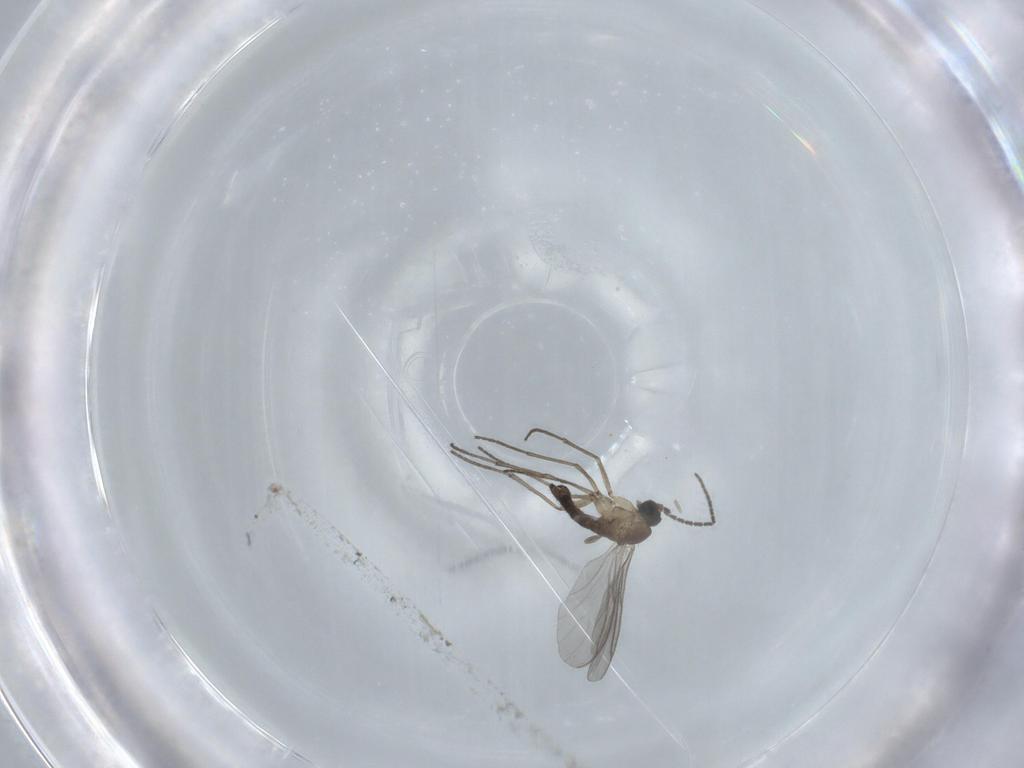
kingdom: Animalia
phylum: Arthropoda
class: Insecta
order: Diptera
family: Sciaridae
